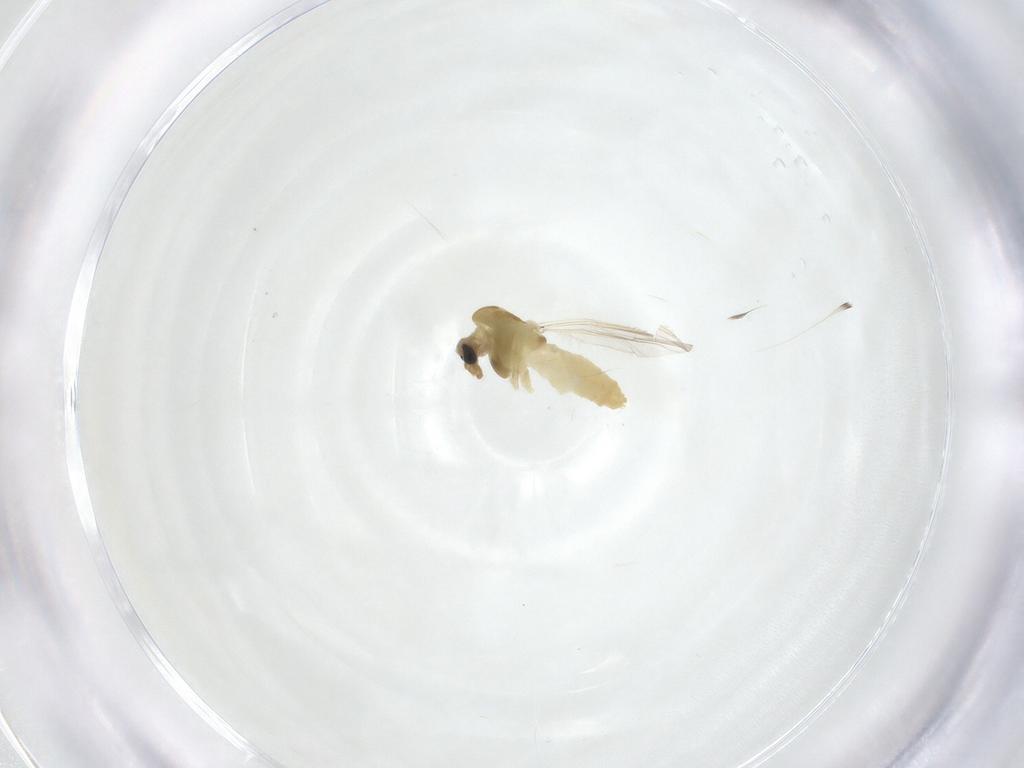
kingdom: Animalia
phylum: Arthropoda
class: Insecta
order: Diptera
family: Chironomidae
